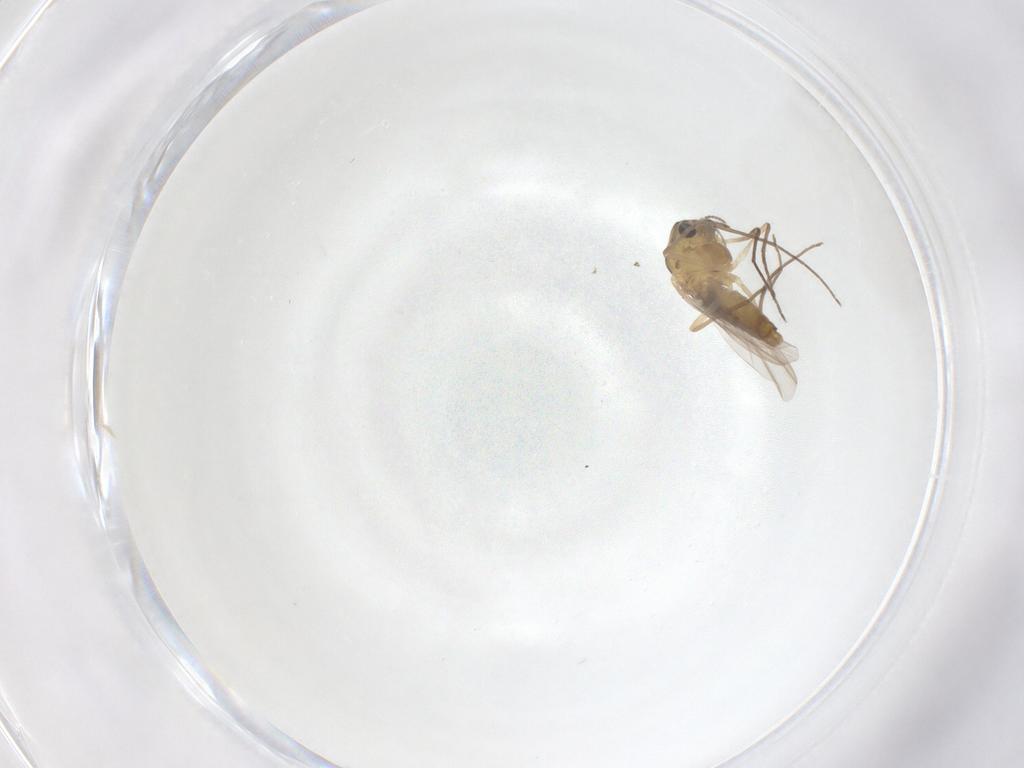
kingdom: Animalia
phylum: Arthropoda
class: Insecta
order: Diptera
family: Chironomidae
